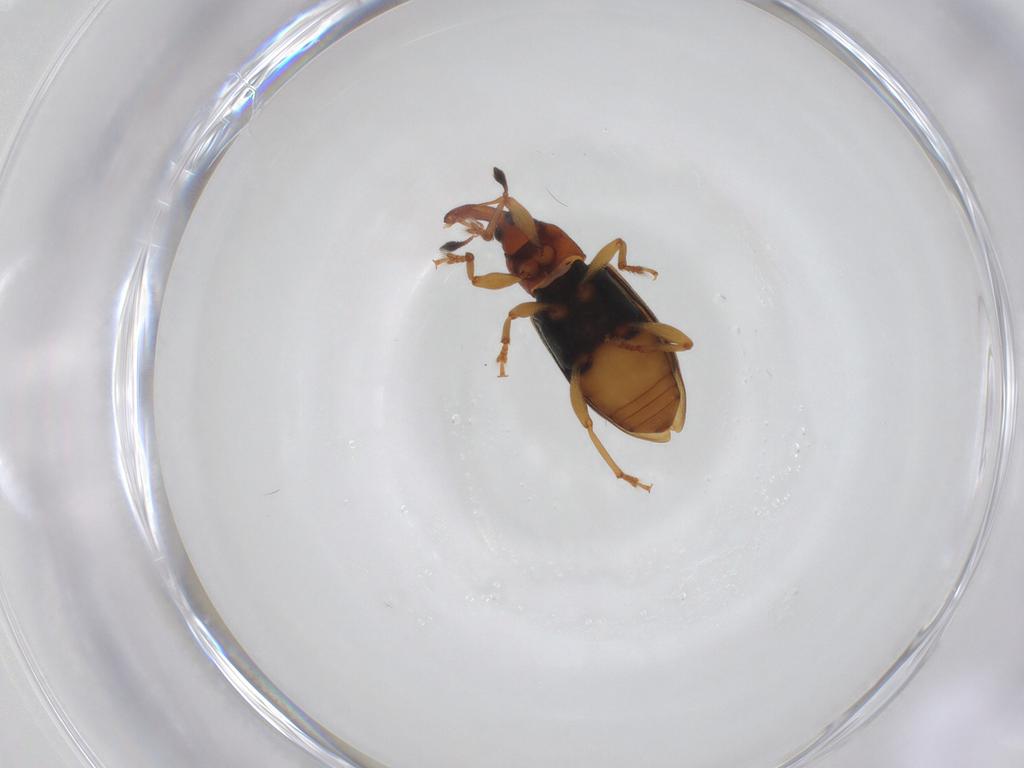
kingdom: Animalia
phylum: Arthropoda
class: Insecta
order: Coleoptera
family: Curculionidae
